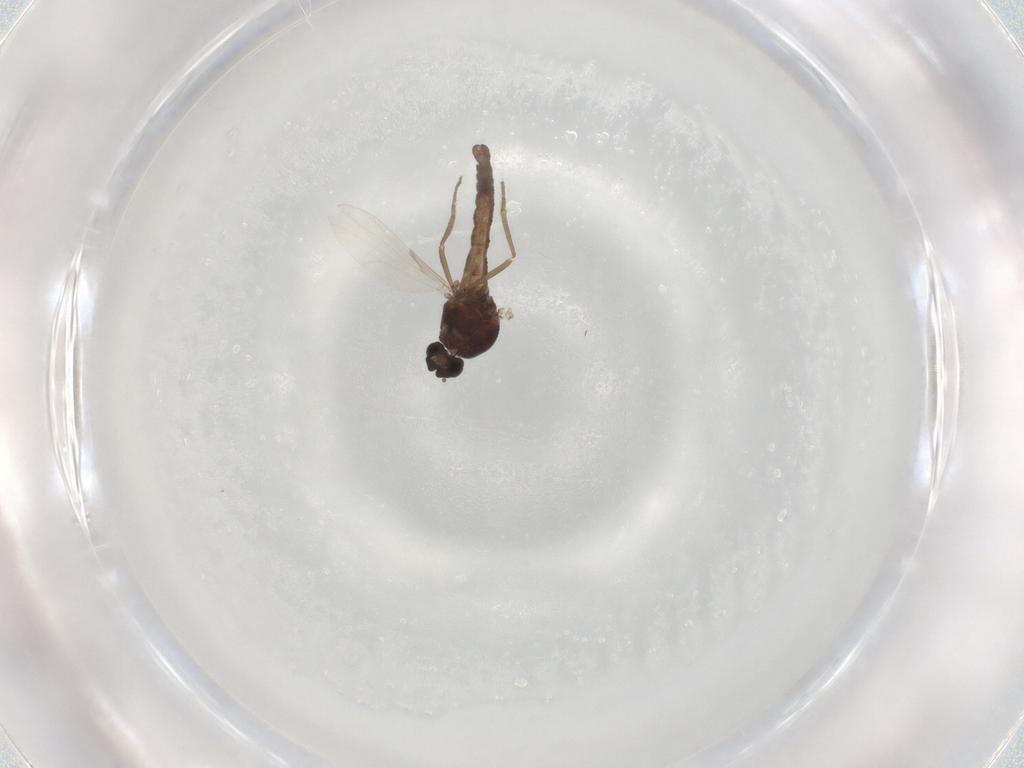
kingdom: Animalia
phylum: Arthropoda
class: Insecta
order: Diptera
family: Ceratopogonidae
